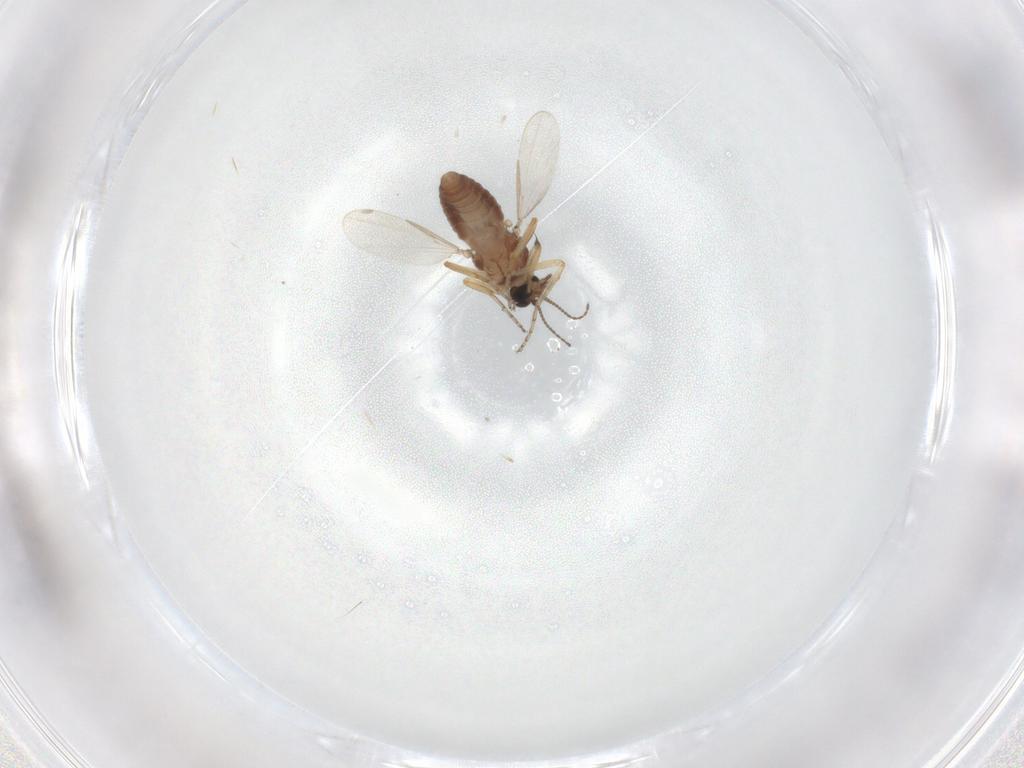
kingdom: Animalia
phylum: Arthropoda
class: Insecta
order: Diptera
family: Ceratopogonidae
